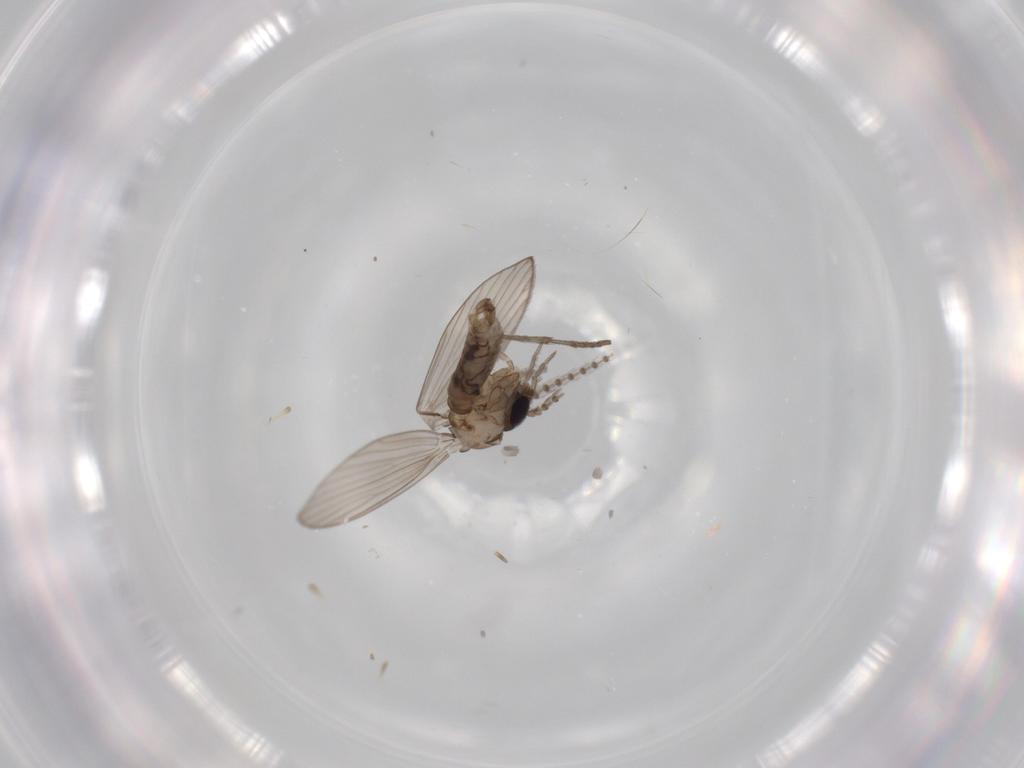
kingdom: Animalia
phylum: Arthropoda
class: Insecta
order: Diptera
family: Psychodidae
